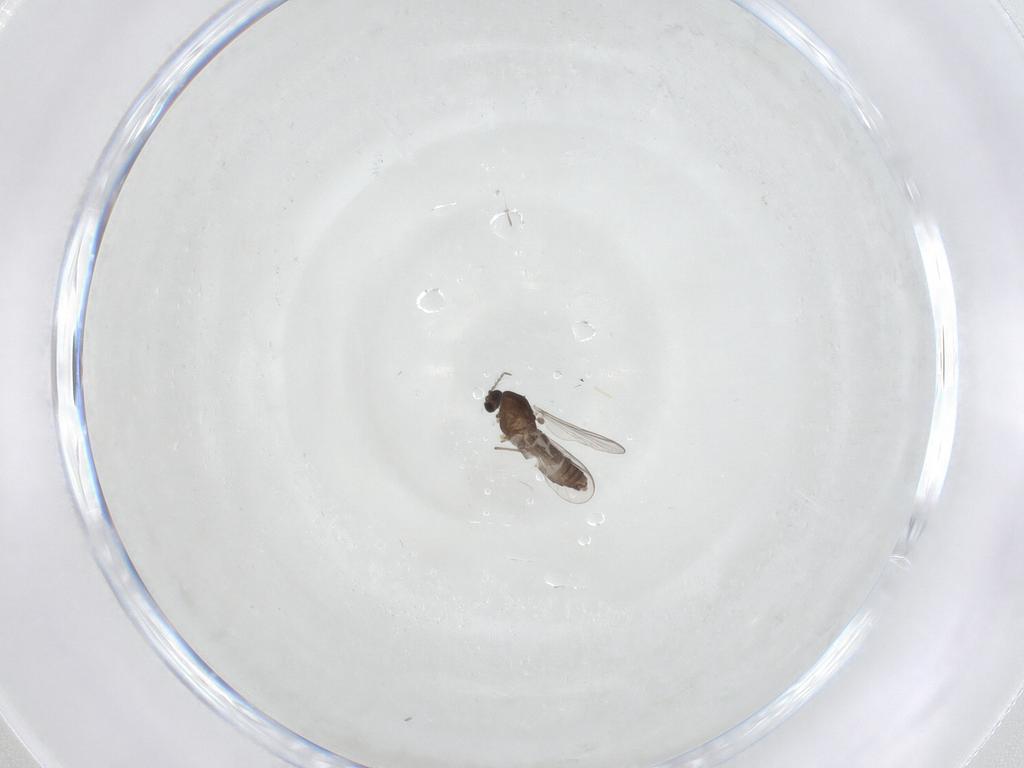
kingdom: Animalia
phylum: Arthropoda
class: Insecta
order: Diptera
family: Chironomidae
